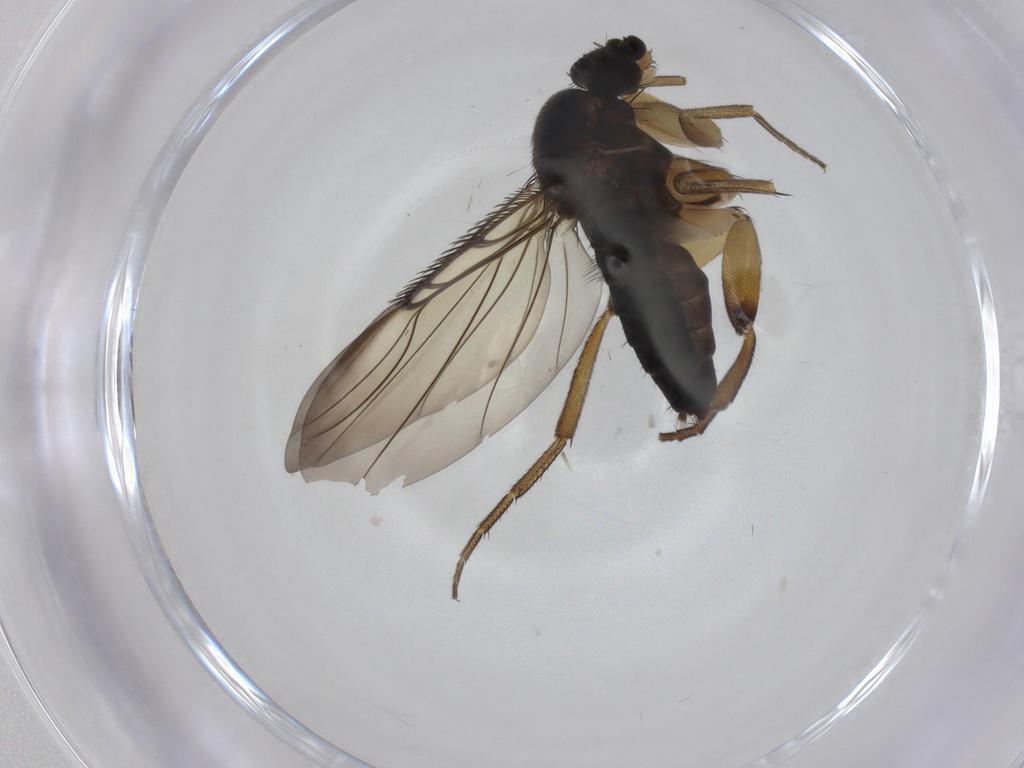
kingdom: Animalia
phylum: Arthropoda
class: Insecta
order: Diptera
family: Phoridae
